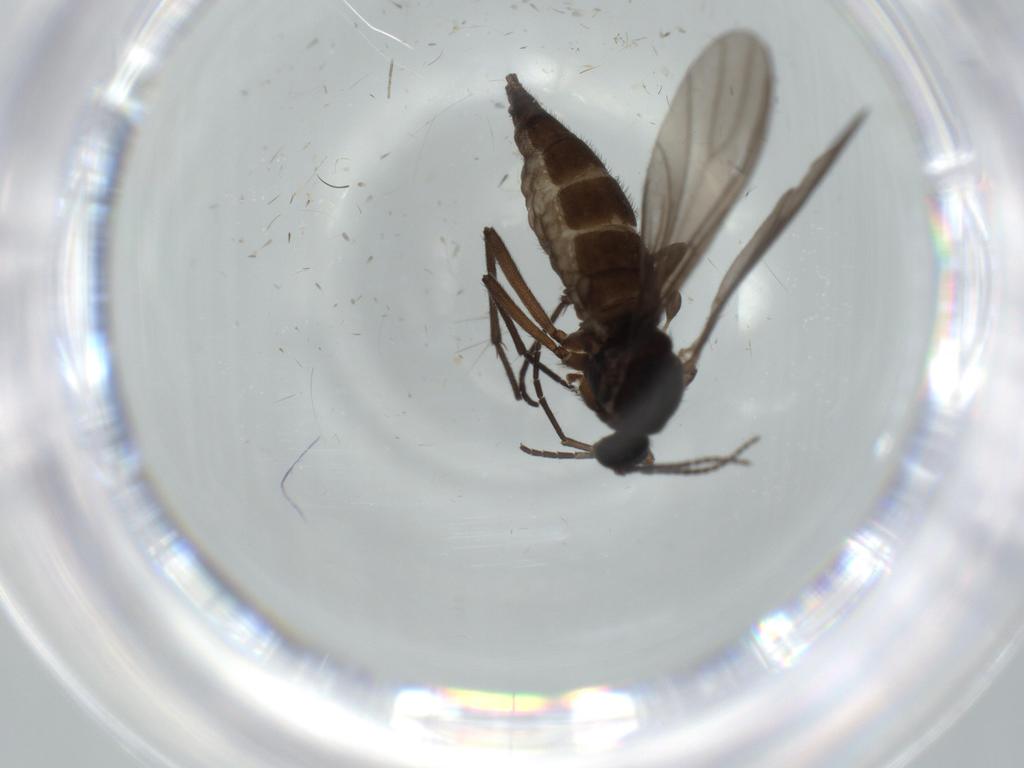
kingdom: Animalia
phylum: Arthropoda
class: Insecta
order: Diptera
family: Sciaridae
